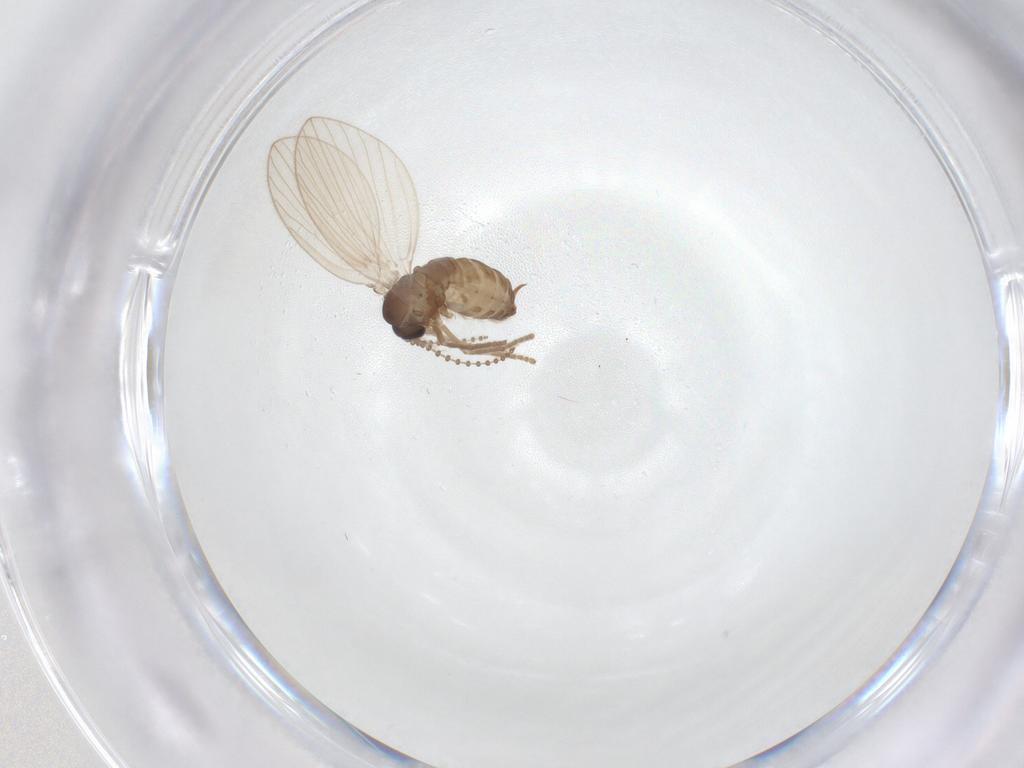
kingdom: Animalia
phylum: Arthropoda
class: Insecta
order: Diptera
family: Psychodidae
